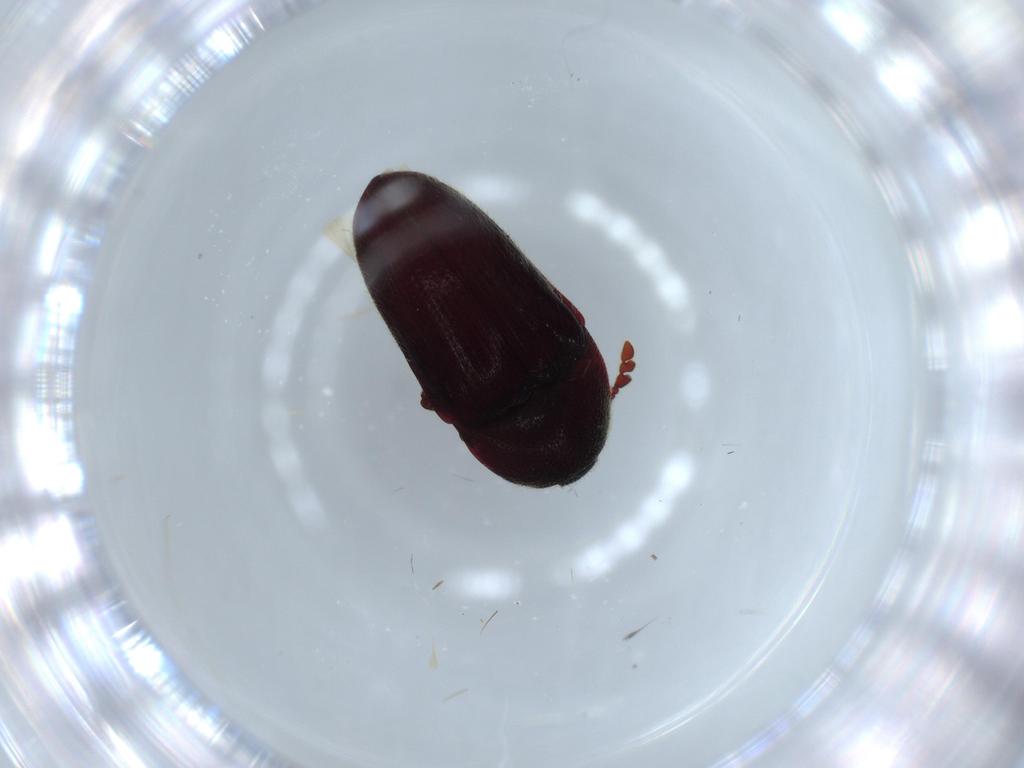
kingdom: Animalia
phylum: Arthropoda
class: Insecta
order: Coleoptera
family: Throscidae
